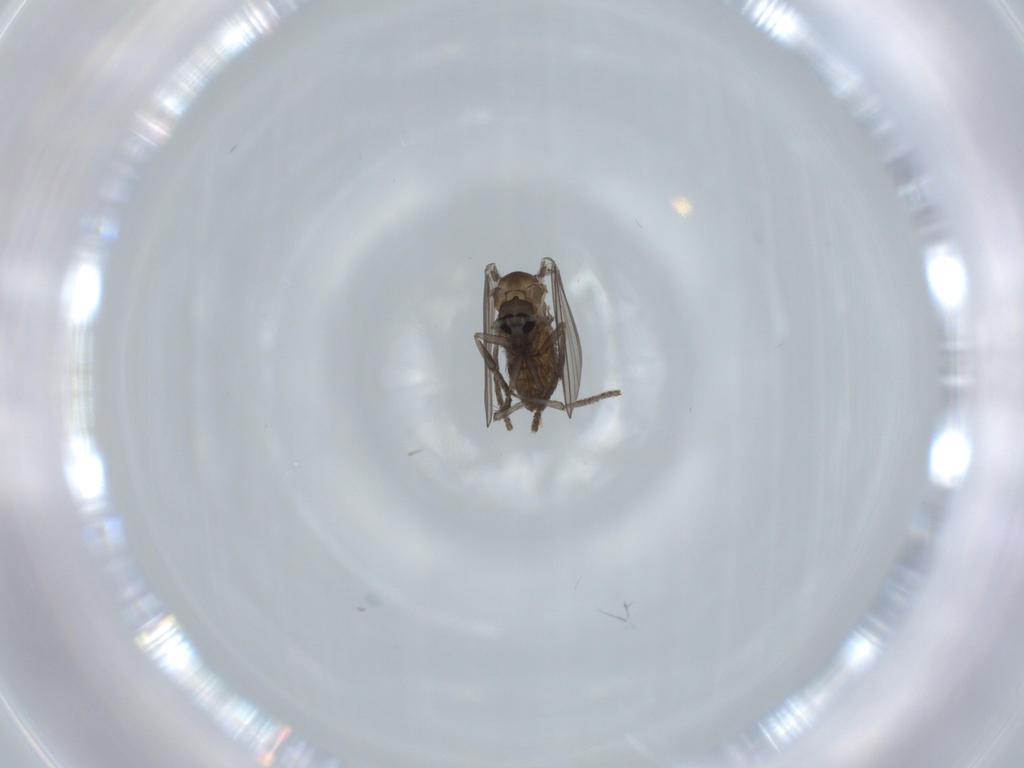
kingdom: Animalia
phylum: Arthropoda
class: Insecta
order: Diptera
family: Psychodidae
